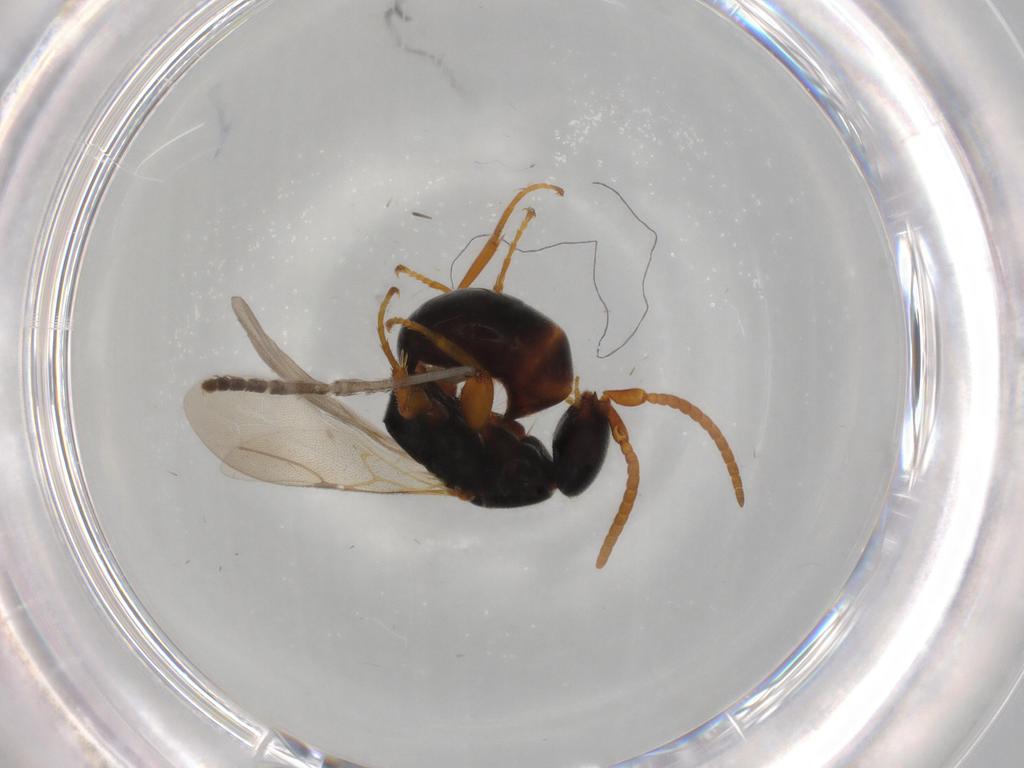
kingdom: Animalia
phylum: Arthropoda
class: Insecta
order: Hymenoptera
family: Bethylidae
